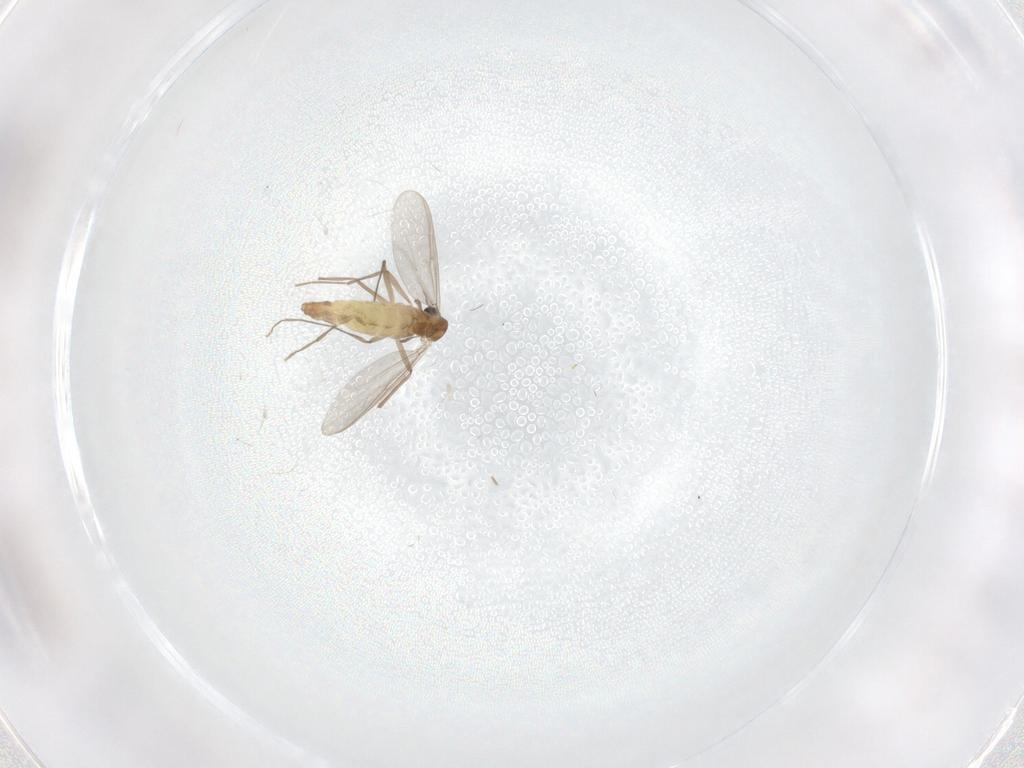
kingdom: Animalia
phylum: Arthropoda
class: Insecta
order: Diptera
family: Chironomidae
